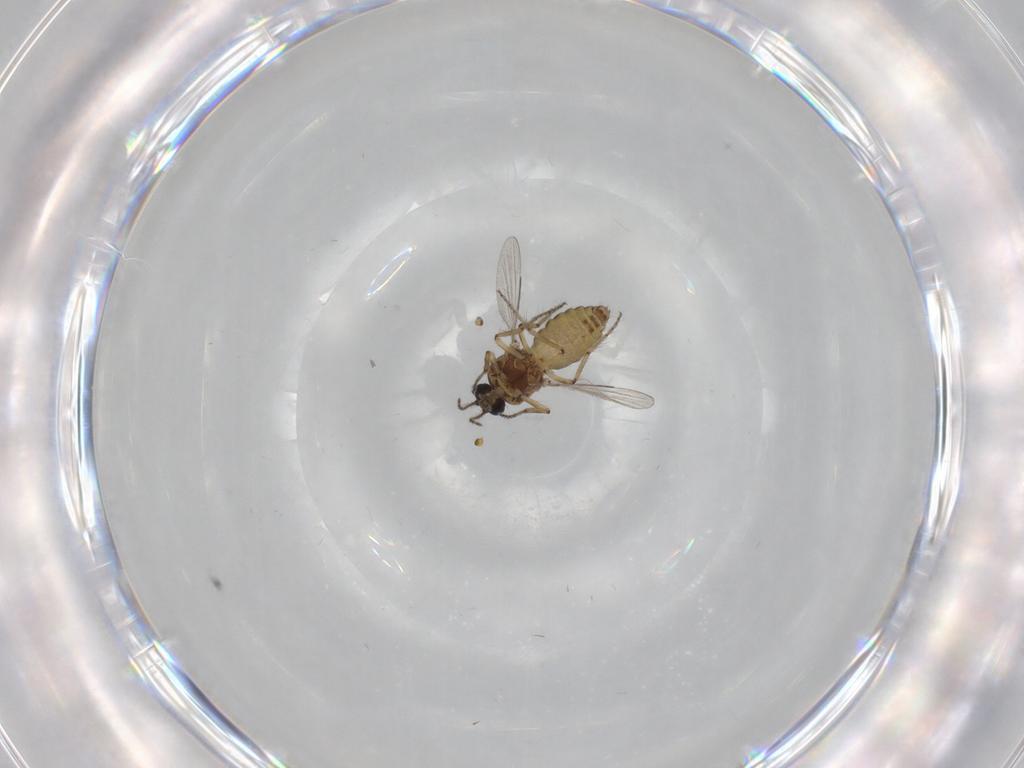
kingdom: Animalia
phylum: Arthropoda
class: Insecta
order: Diptera
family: Ceratopogonidae
